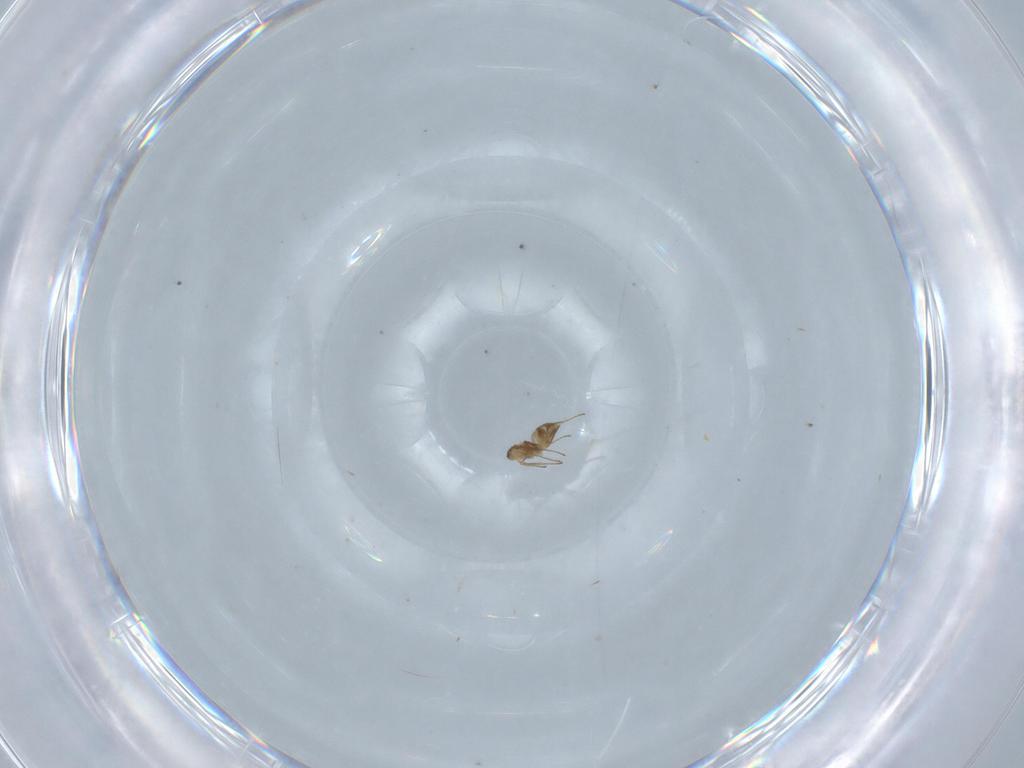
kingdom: Animalia
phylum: Arthropoda
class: Insecta
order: Hymenoptera
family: Mymaridae
